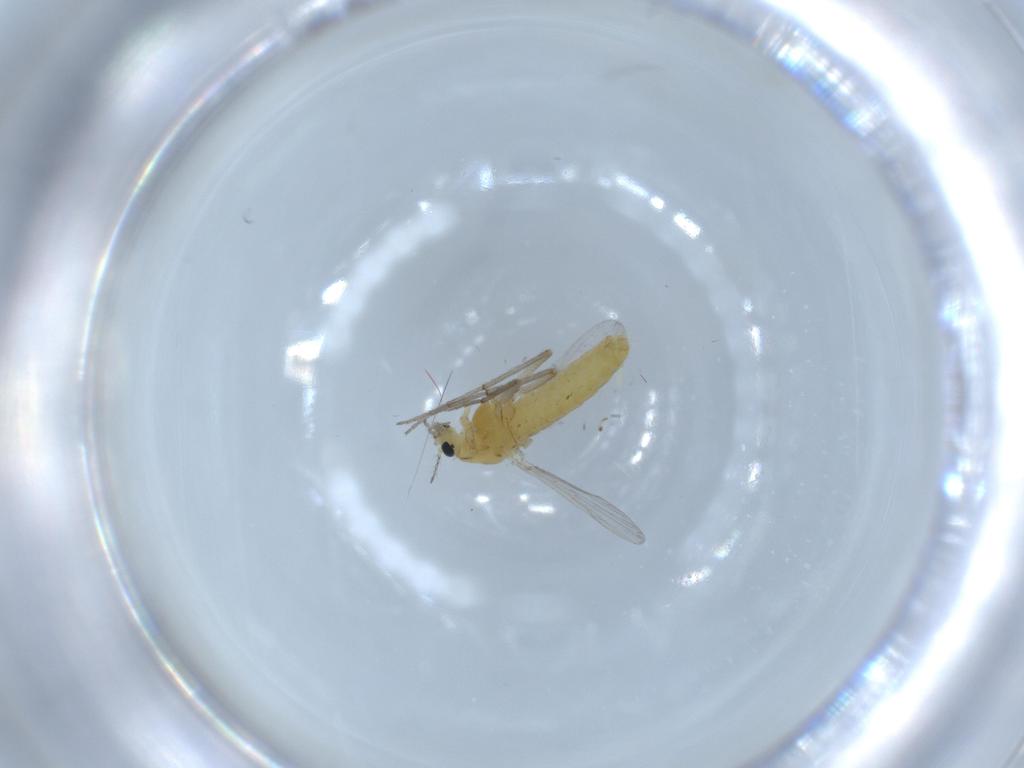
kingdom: Animalia
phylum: Arthropoda
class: Insecta
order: Diptera
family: Chironomidae
